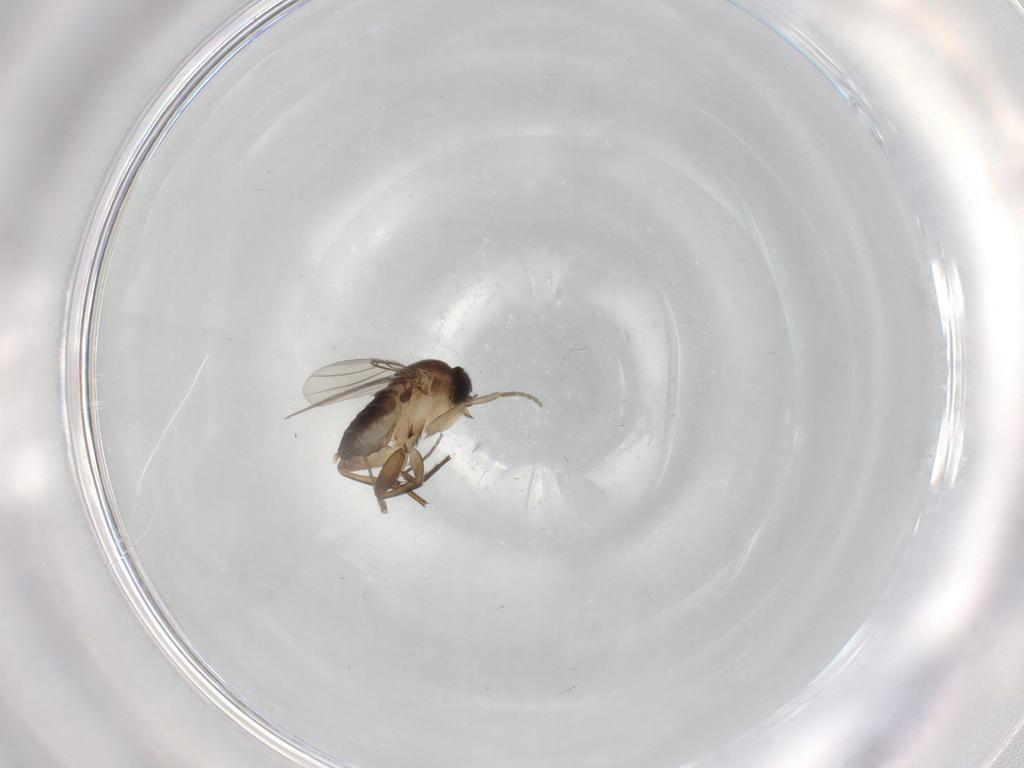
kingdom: Animalia
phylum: Arthropoda
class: Insecta
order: Diptera
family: Phoridae
